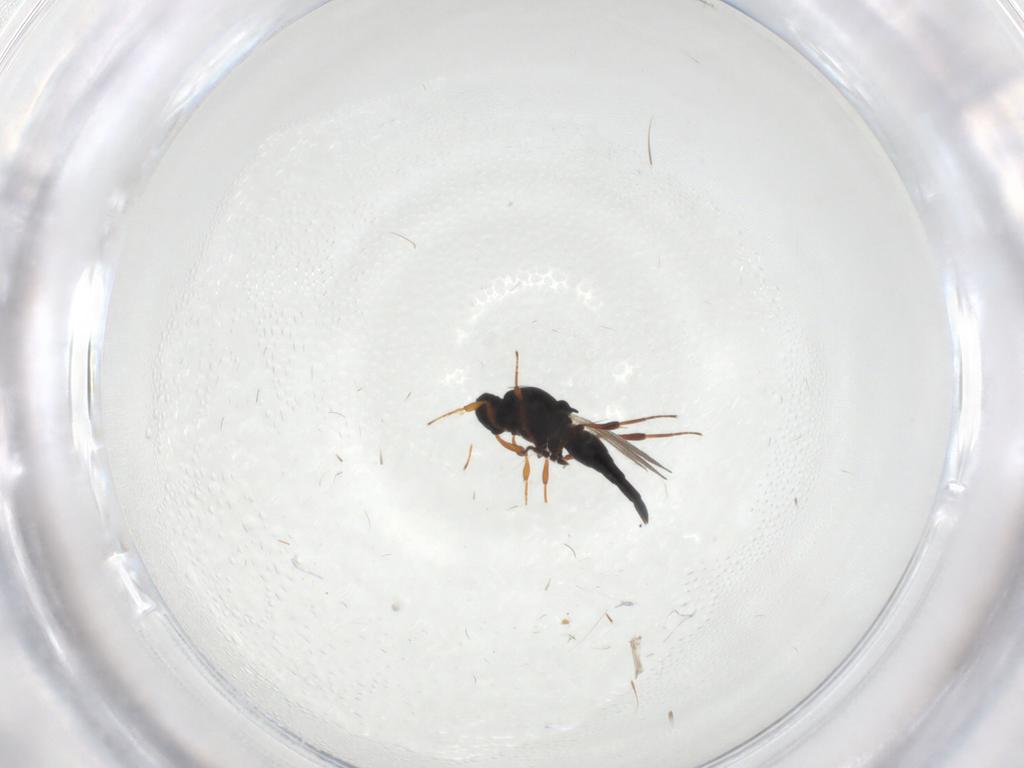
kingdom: Animalia
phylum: Arthropoda
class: Insecta
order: Hymenoptera
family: Platygastridae
